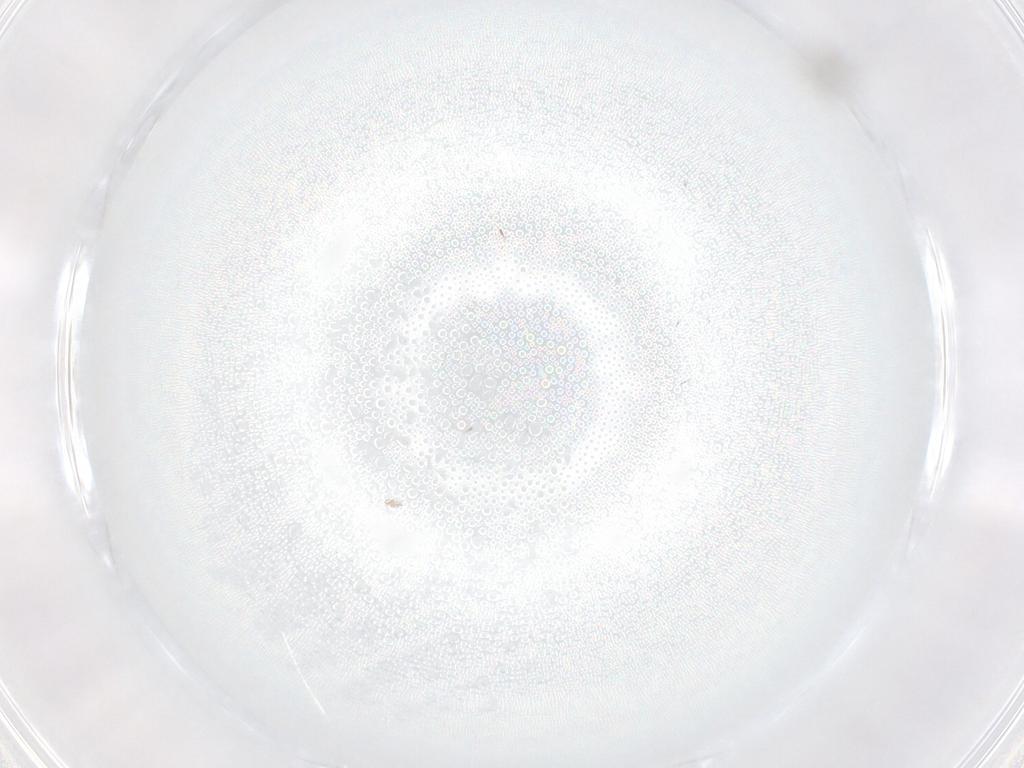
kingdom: Animalia
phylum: Arthropoda
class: Insecta
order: Diptera
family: Cecidomyiidae
